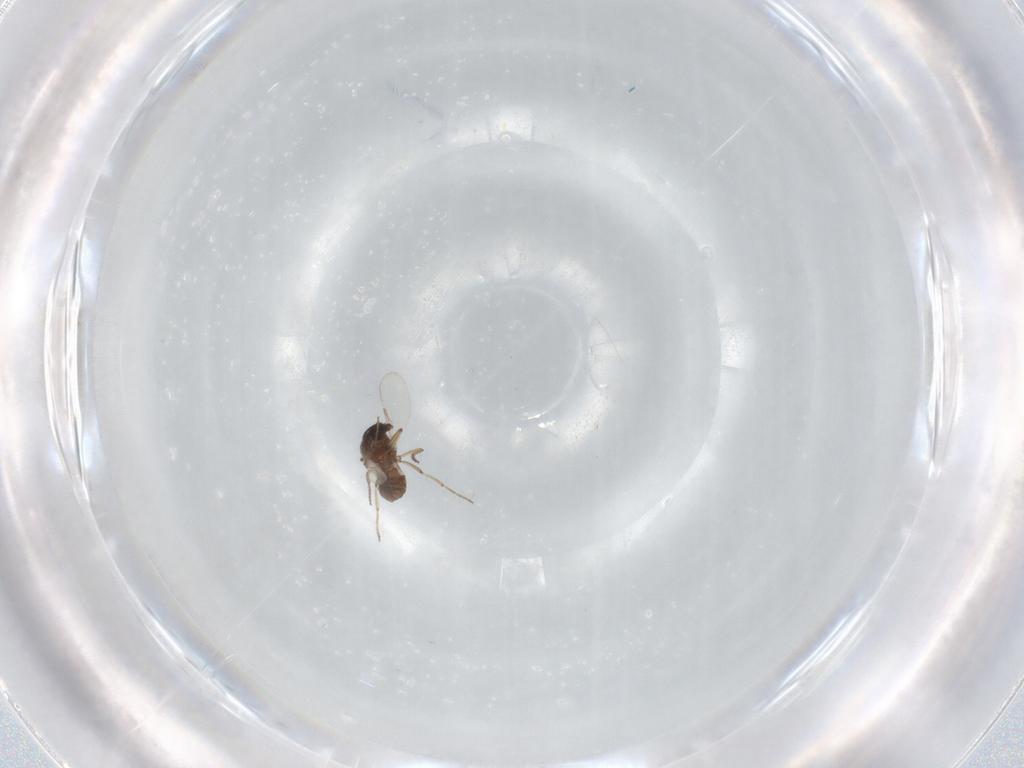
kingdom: Animalia
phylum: Arthropoda
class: Insecta
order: Diptera
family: Ceratopogonidae
